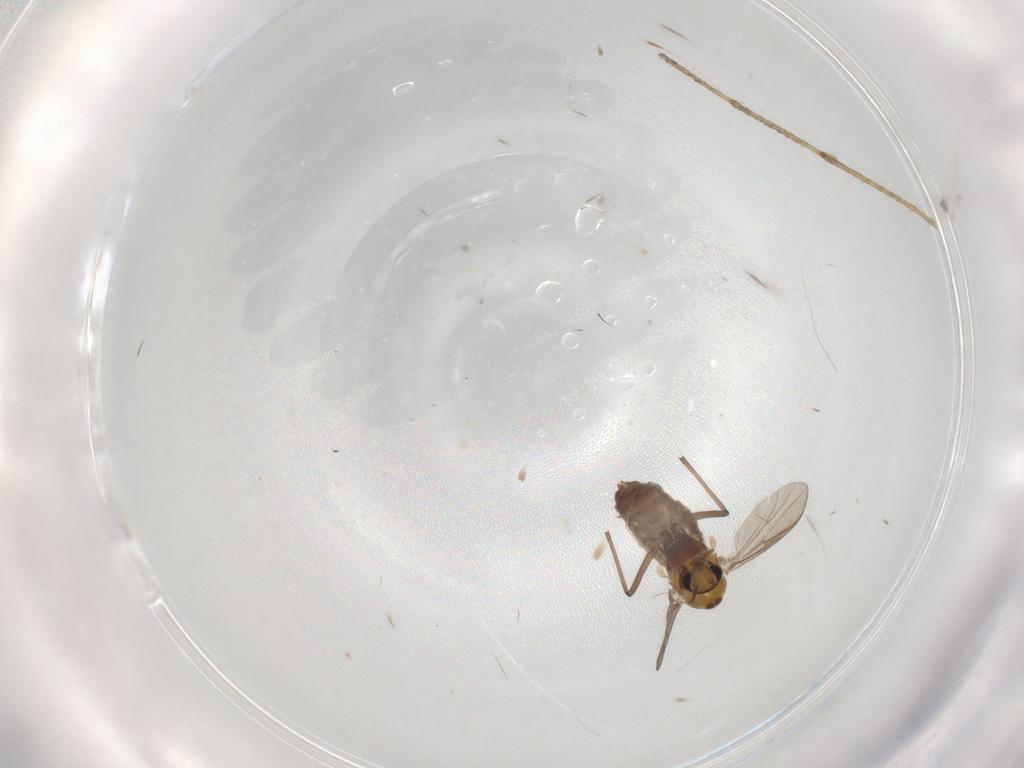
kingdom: Animalia
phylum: Arthropoda
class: Insecta
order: Diptera
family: Chironomidae
